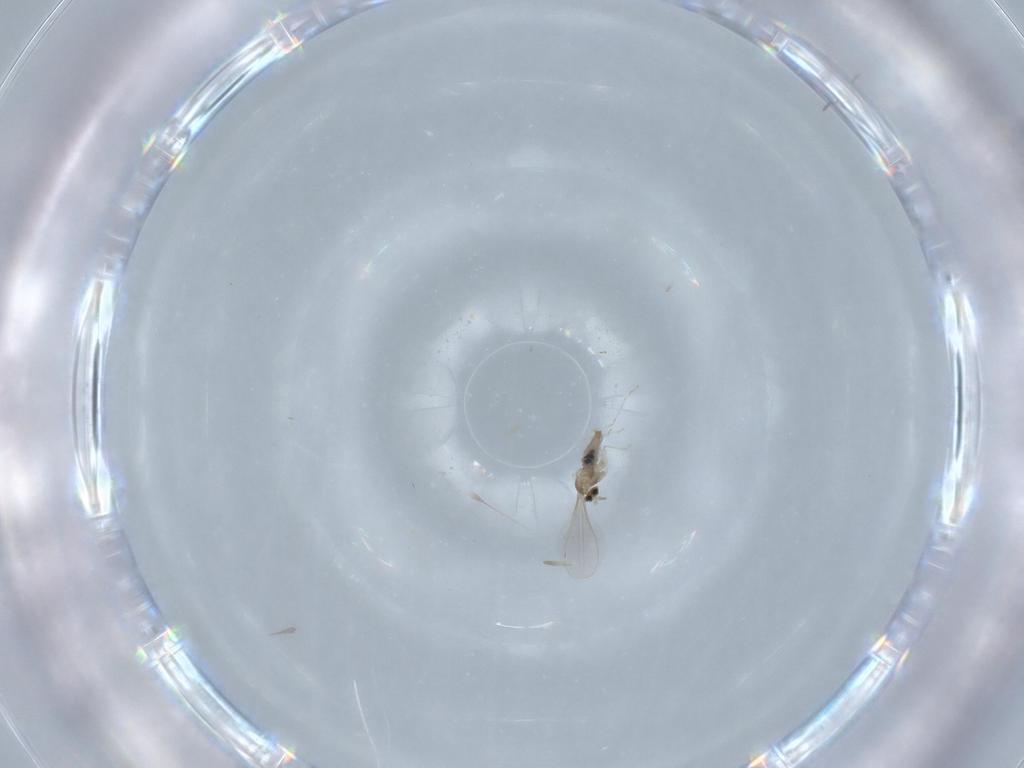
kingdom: Animalia
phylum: Arthropoda
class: Insecta
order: Diptera
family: Cecidomyiidae
